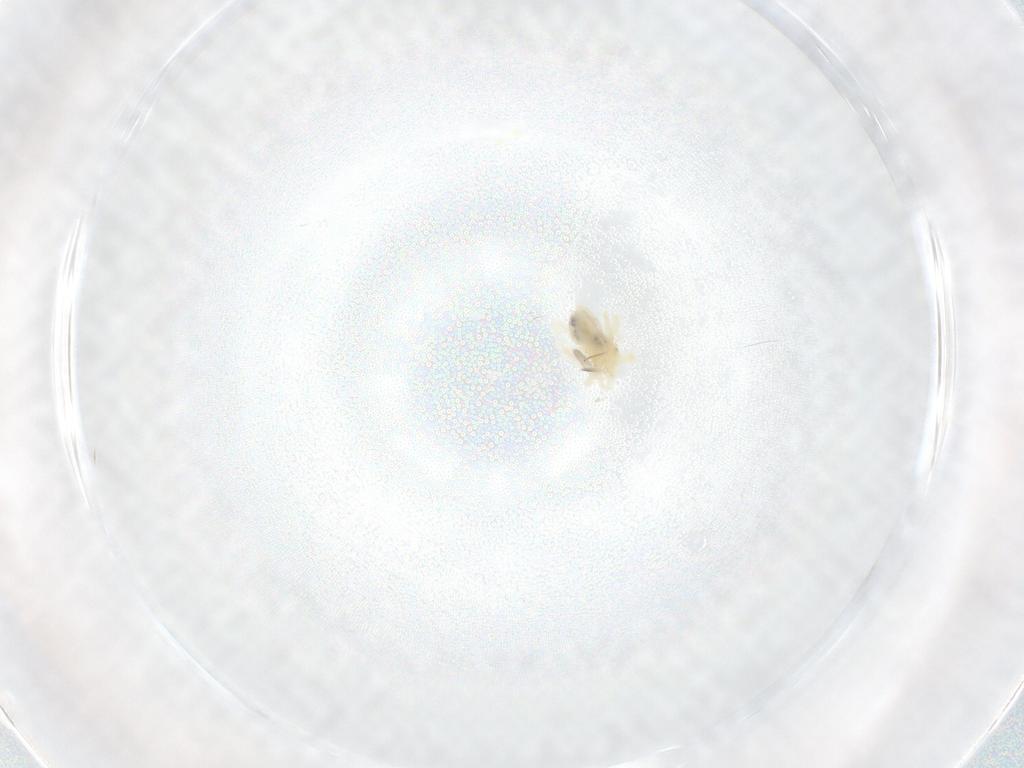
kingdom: Animalia
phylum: Arthropoda
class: Arachnida
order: Trombidiformes
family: Anystidae
